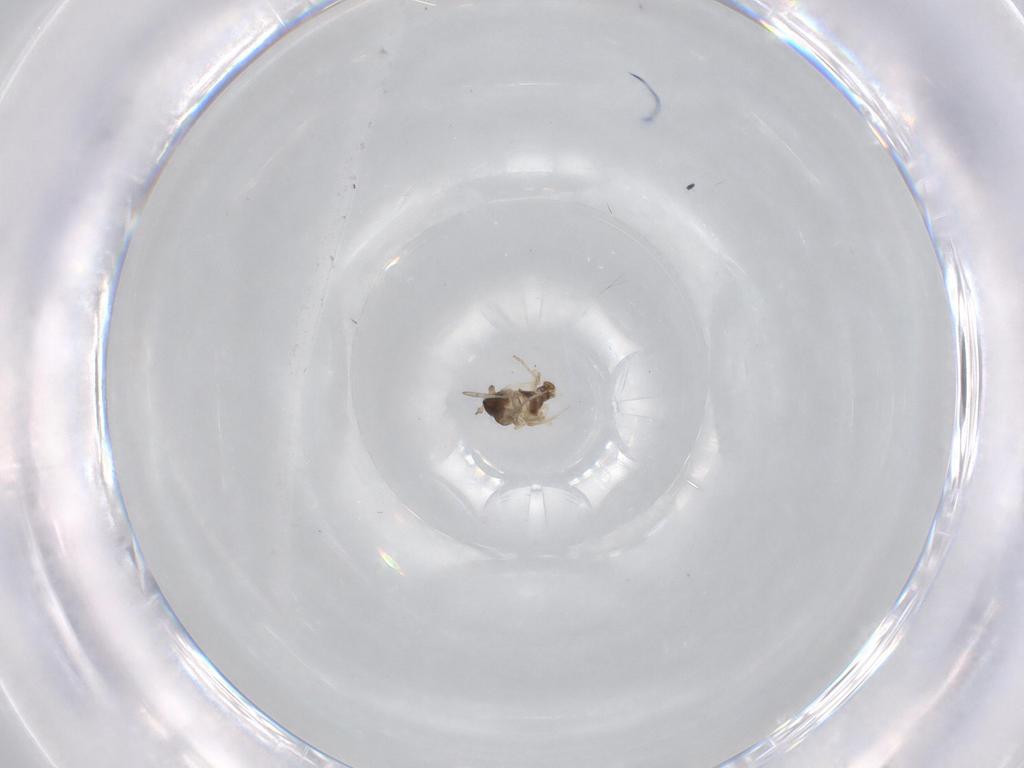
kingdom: Animalia
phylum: Arthropoda
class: Insecta
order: Diptera
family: Cecidomyiidae
